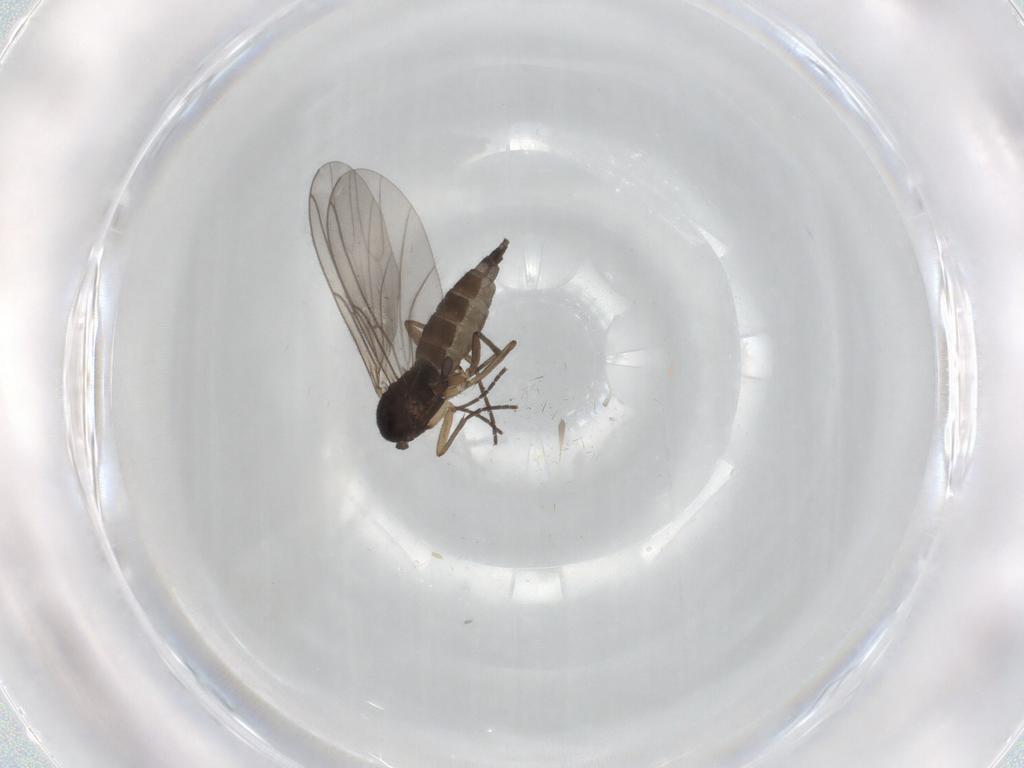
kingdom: Animalia
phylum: Arthropoda
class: Insecta
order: Diptera
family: Sciaridae
